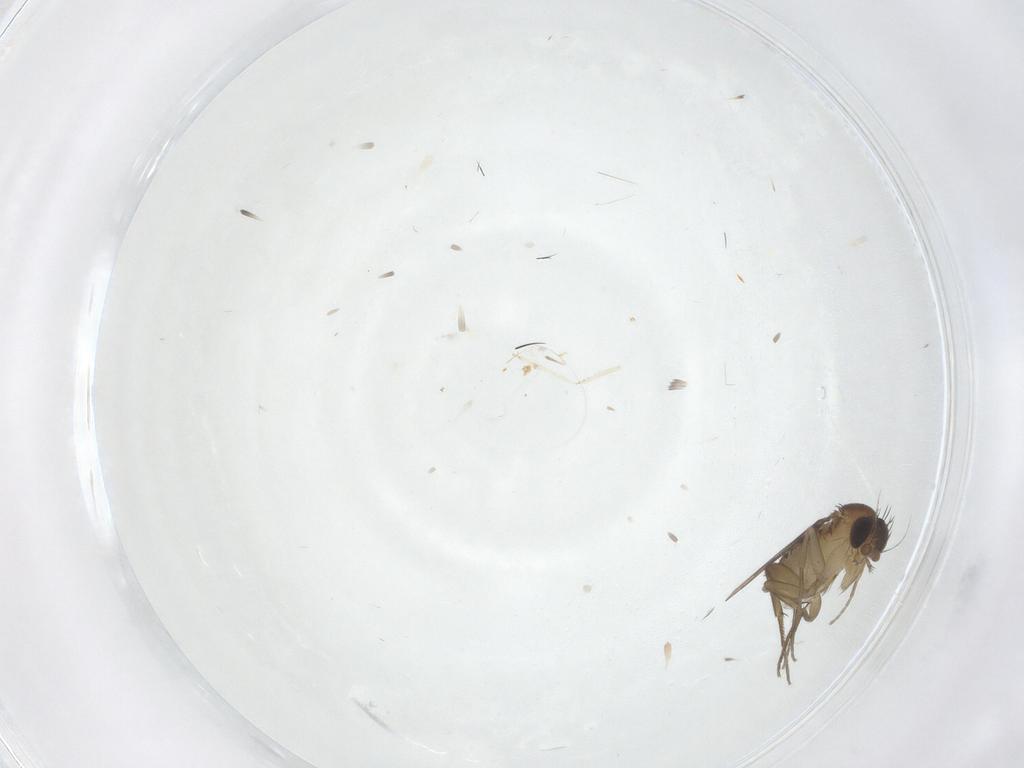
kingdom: Animalia
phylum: Arthropoda
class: Insecta
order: Diptera
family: Phoridae
